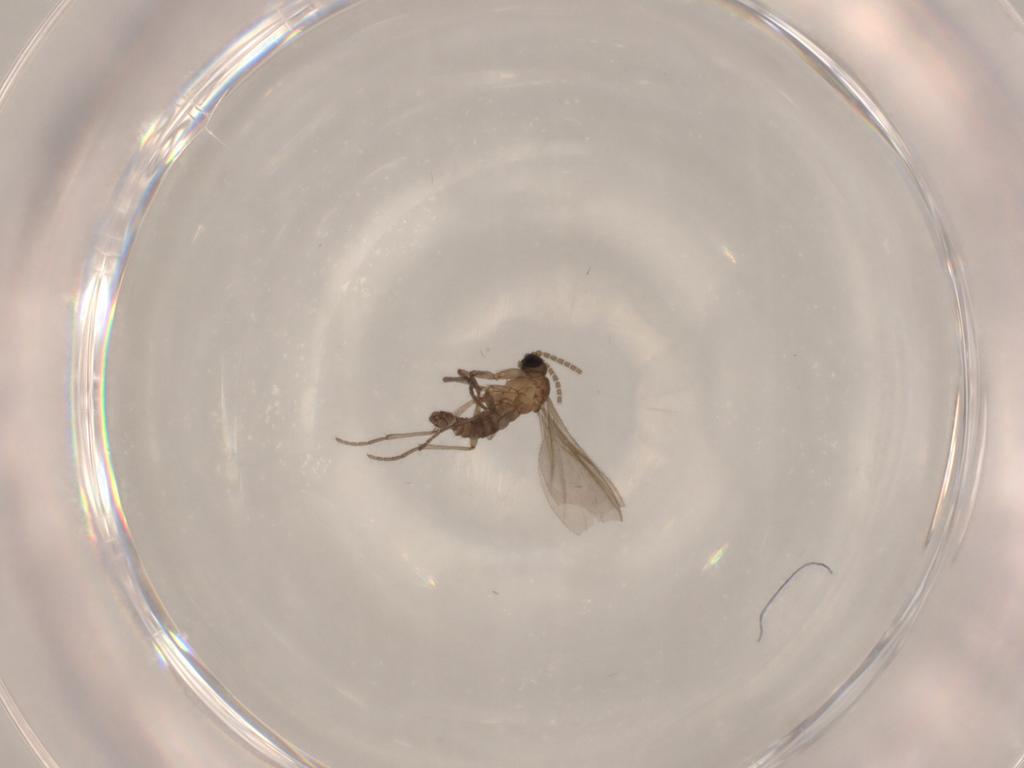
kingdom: Animalia
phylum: Arthropoda
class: Insecta
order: Diptera
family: Sciaridae
